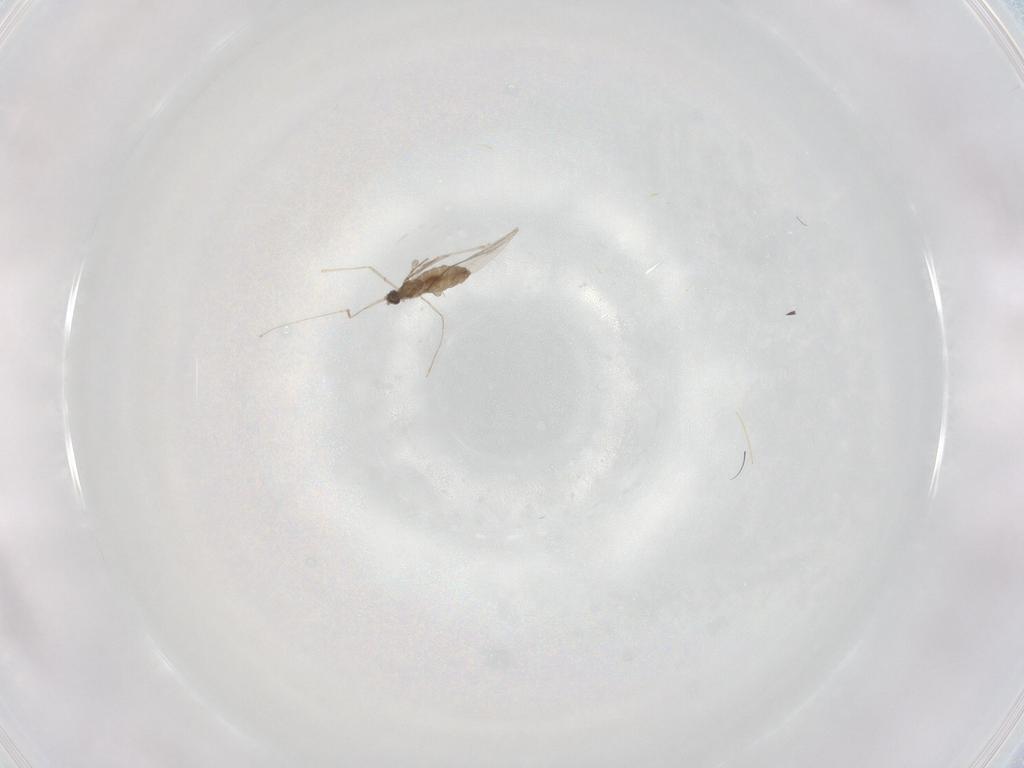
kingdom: Animalia
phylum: Arthropoda
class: Insecta
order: Diptera
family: Cecidomyiidae
